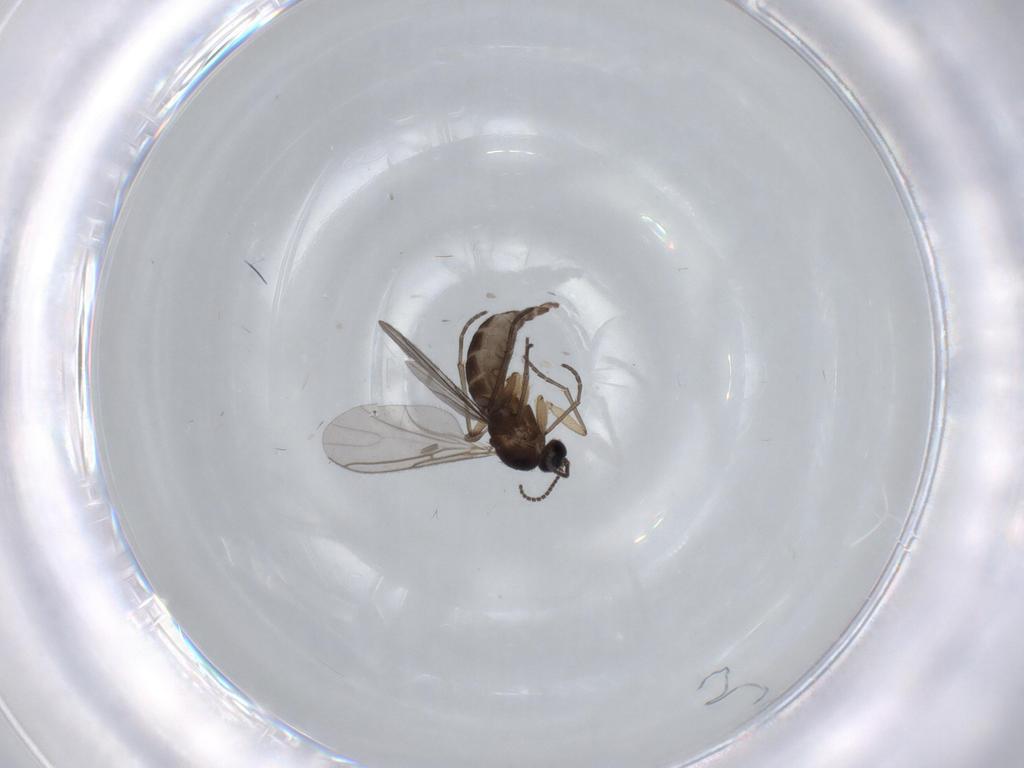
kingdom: Animalia
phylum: Arthropoda
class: Insecta
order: Diptera
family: Sciaridae
